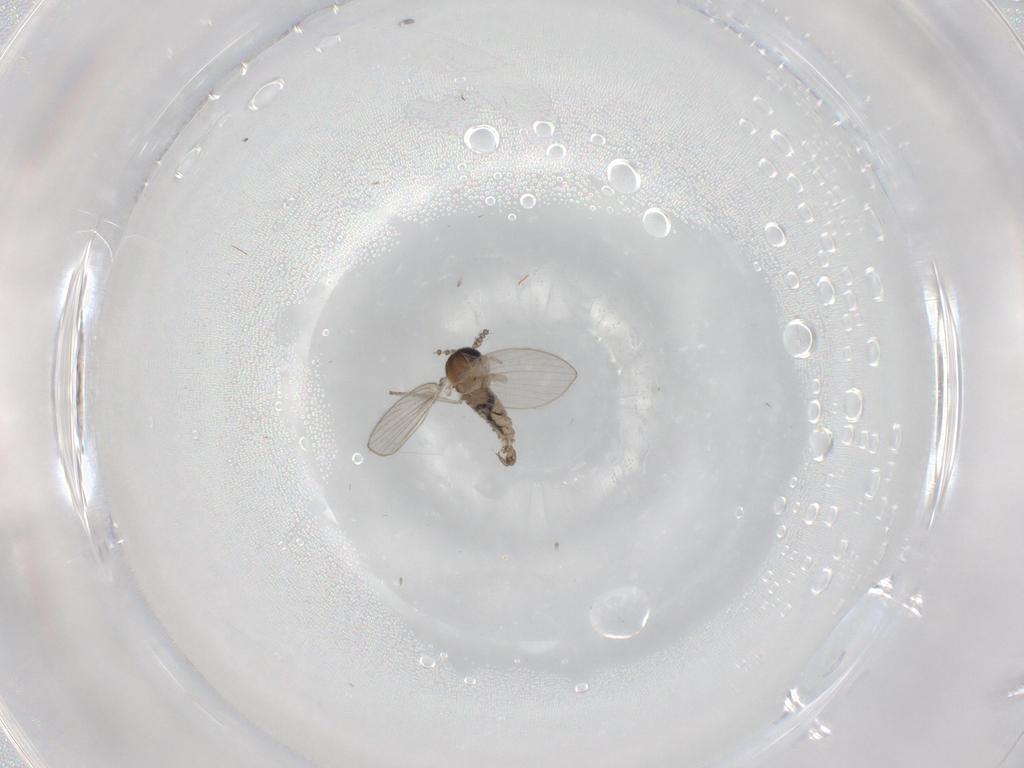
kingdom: Animalia
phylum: Arthropoda
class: Insecta
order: Diptera
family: Psychodidae
